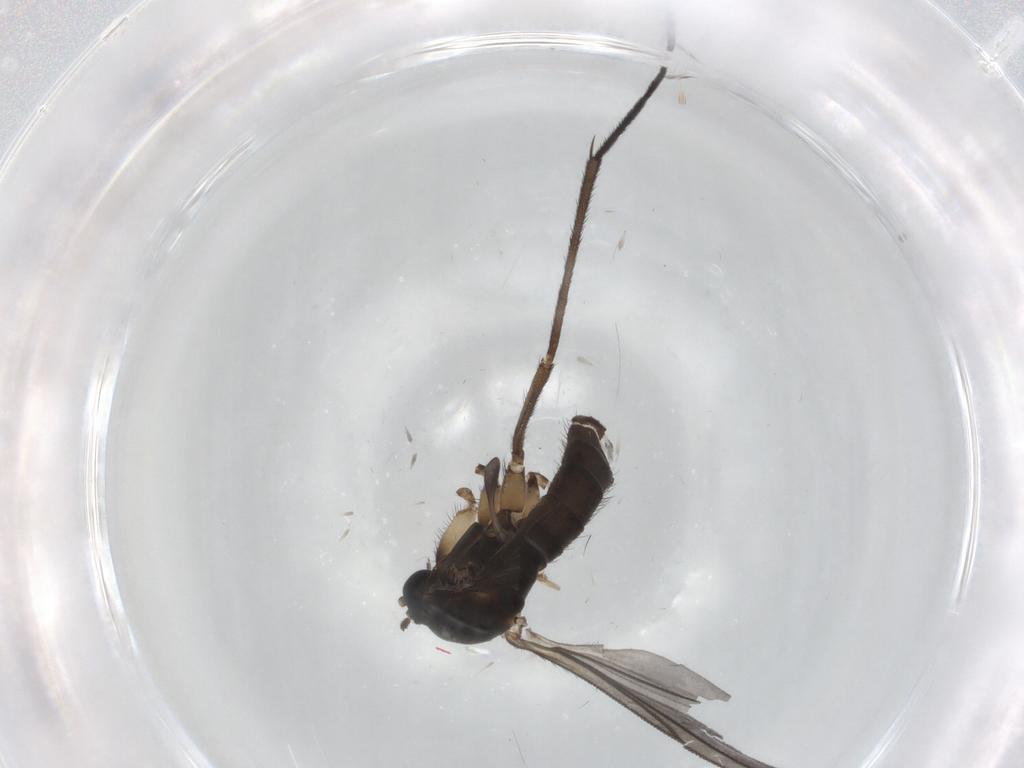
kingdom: Animalia
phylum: Arthropoda
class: Insecta
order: Diptera
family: Sciaridae
